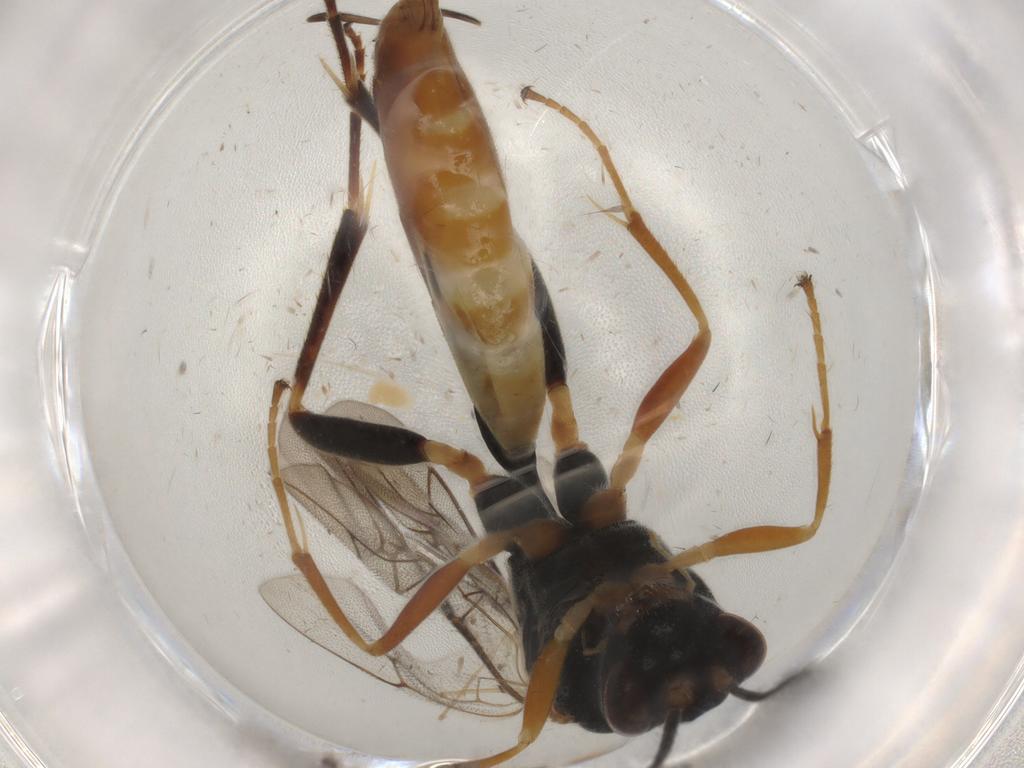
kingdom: Animalia
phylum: Arthropoda
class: Insecta
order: Hymenoptera
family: Ichneumonidae
